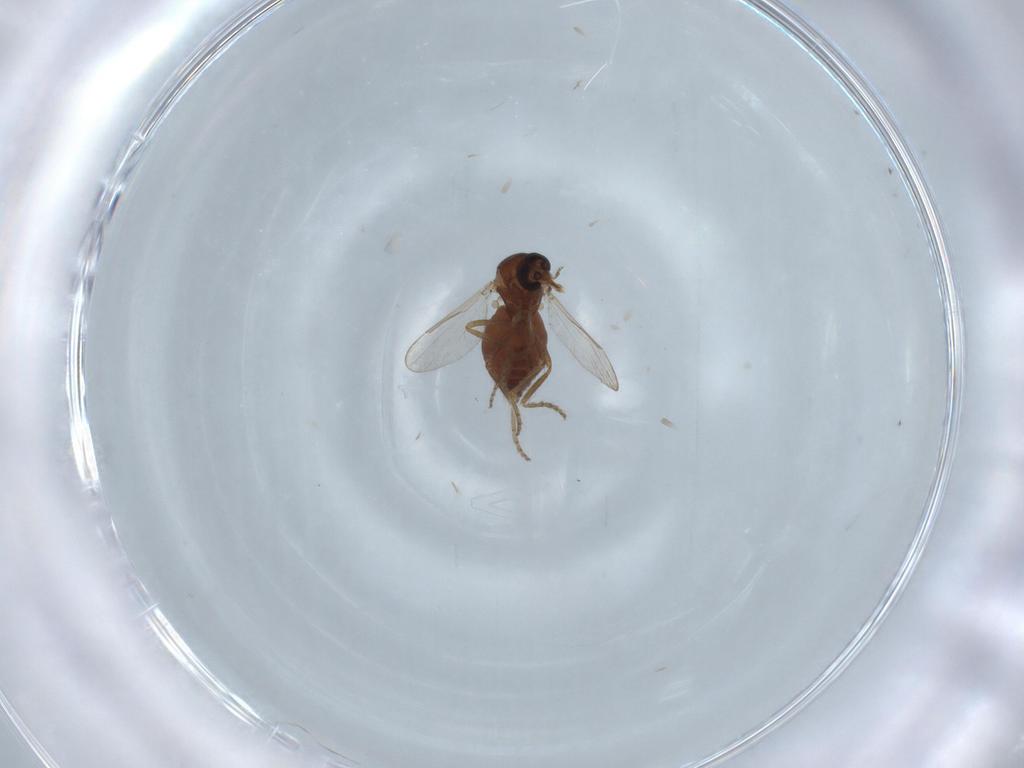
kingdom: Animalia
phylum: Arthropoda
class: Insecta
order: Diptera
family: Ceratopogonidae
